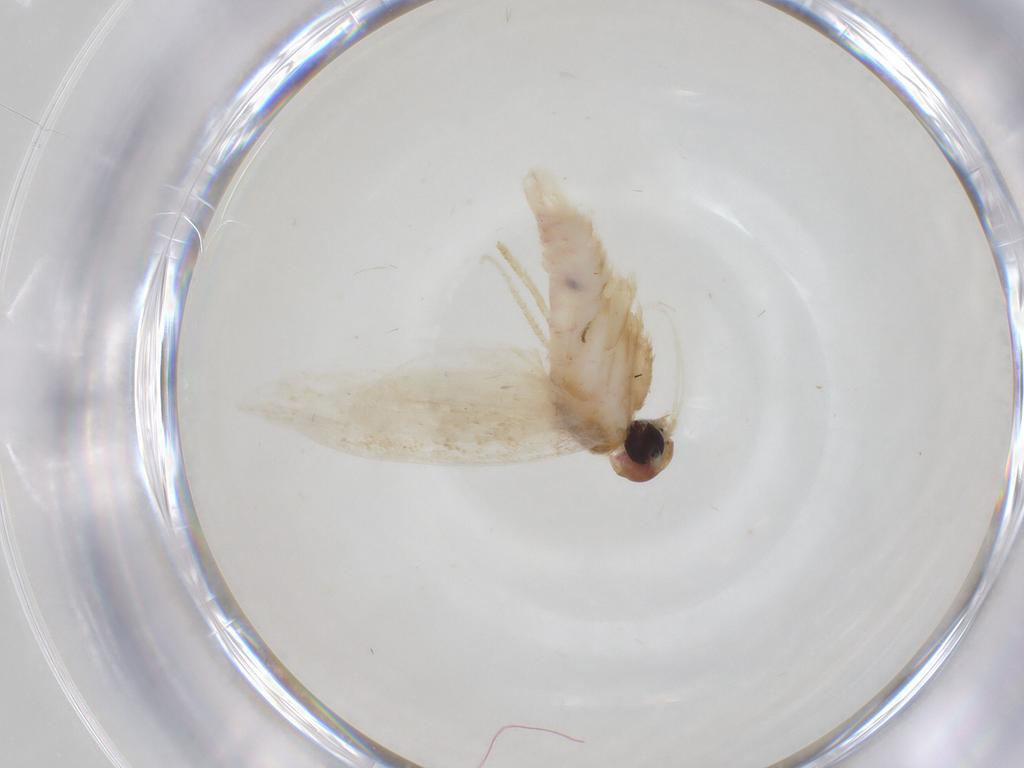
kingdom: Animalia
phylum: Arthropoda
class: Insecta
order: Lepidoptera
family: Autostichidae
